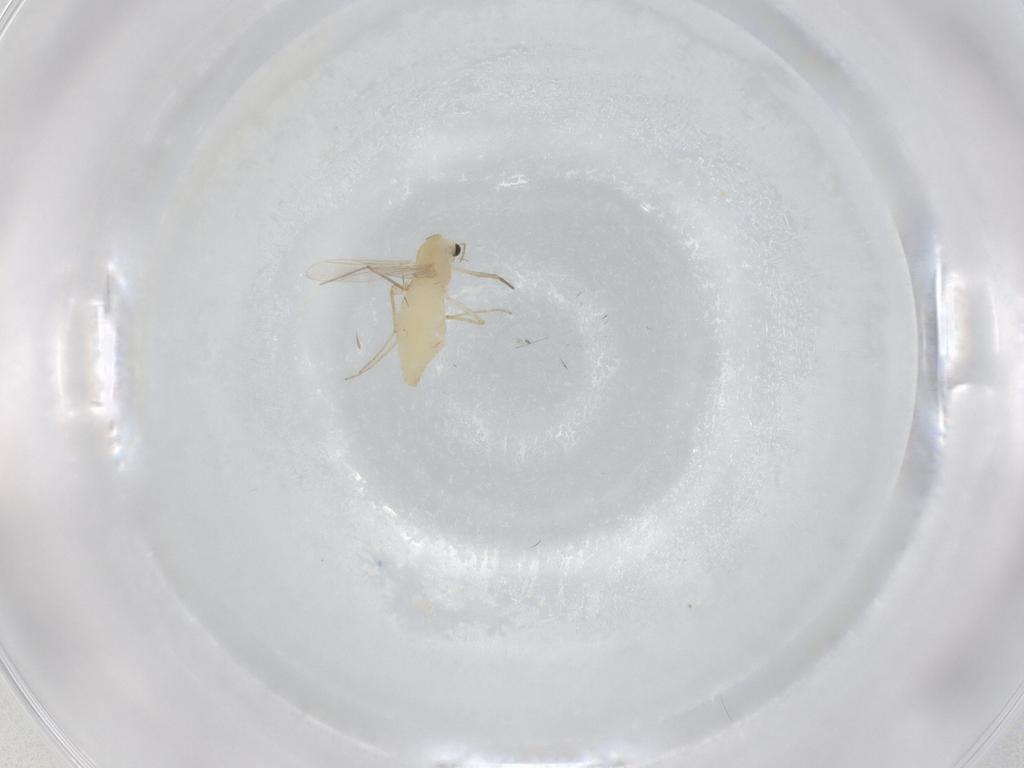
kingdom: Animalia
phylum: Arthropoda
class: Insecta
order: Diptera
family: Chironomidae
